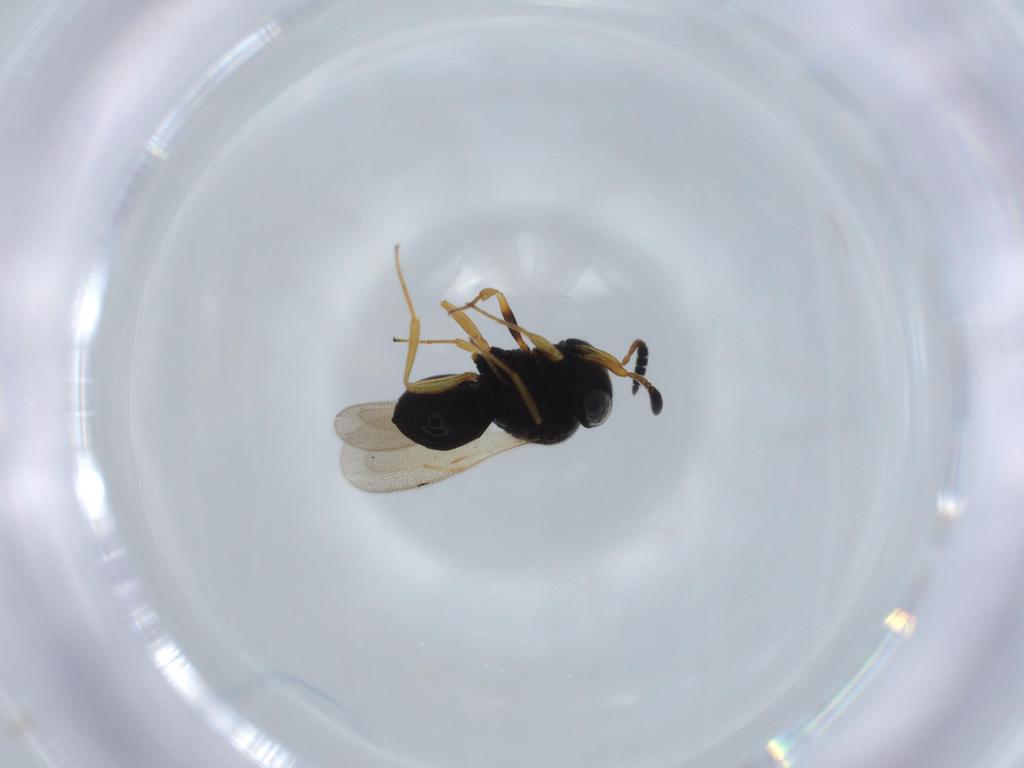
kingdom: Animalia
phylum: Arthropoda
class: Insecta
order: Hymenoptera
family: Scelionidae
